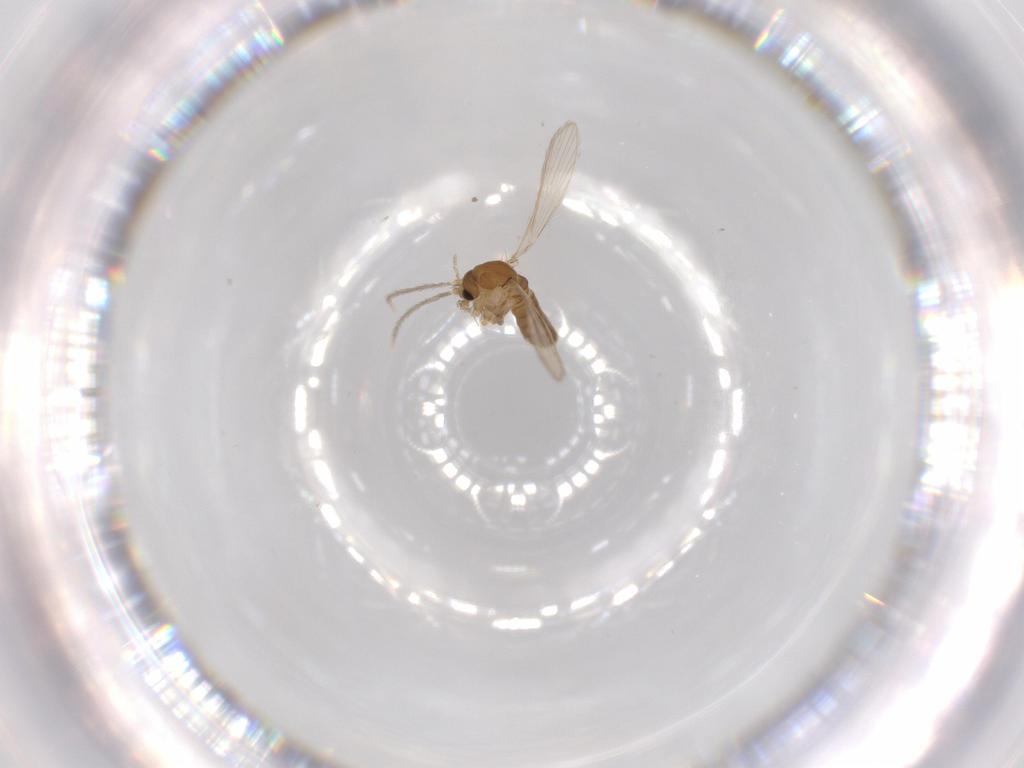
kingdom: Animalia
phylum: Arthropoda
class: Insecta
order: Diptera
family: Psychodidae
